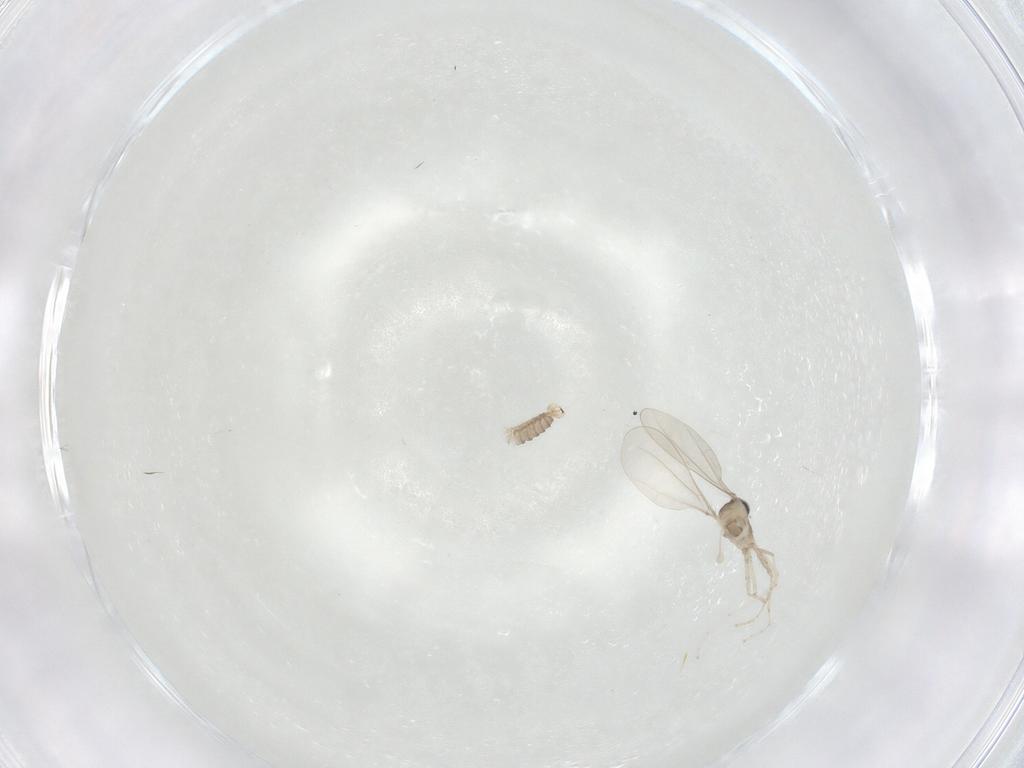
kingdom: Animalia
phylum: Arthropoda
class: Insecta
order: Diptera
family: Cecidomyiidae
